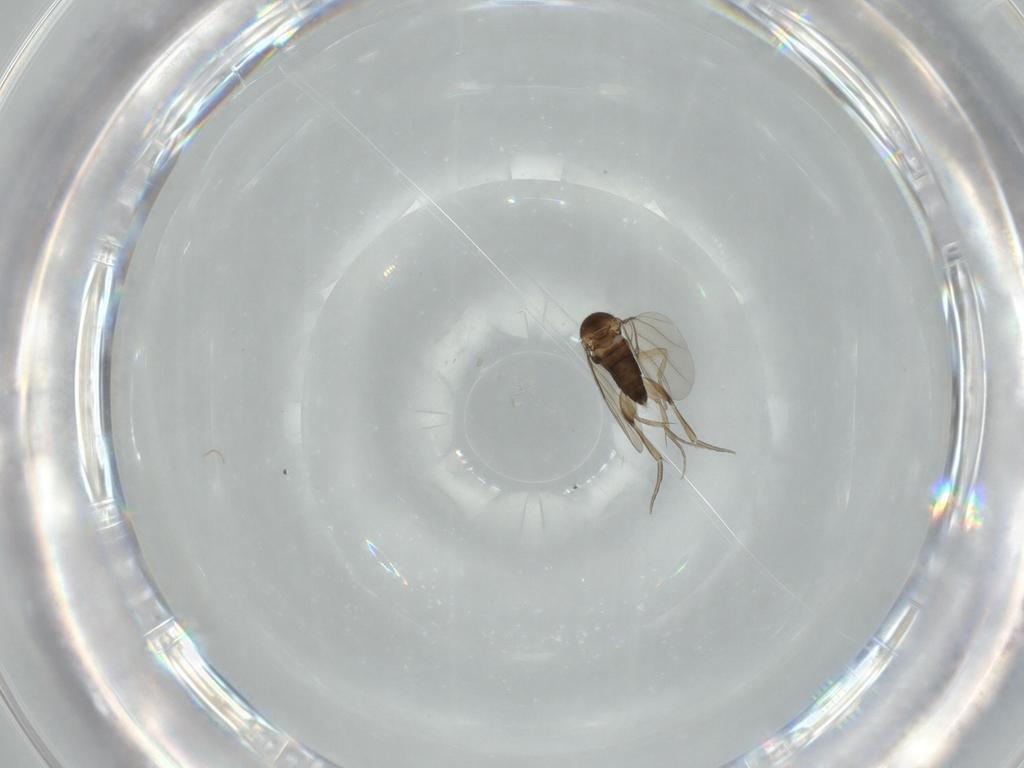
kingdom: Animalia
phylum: Arthropoda
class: Insecta
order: Diptera
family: Phoridae
